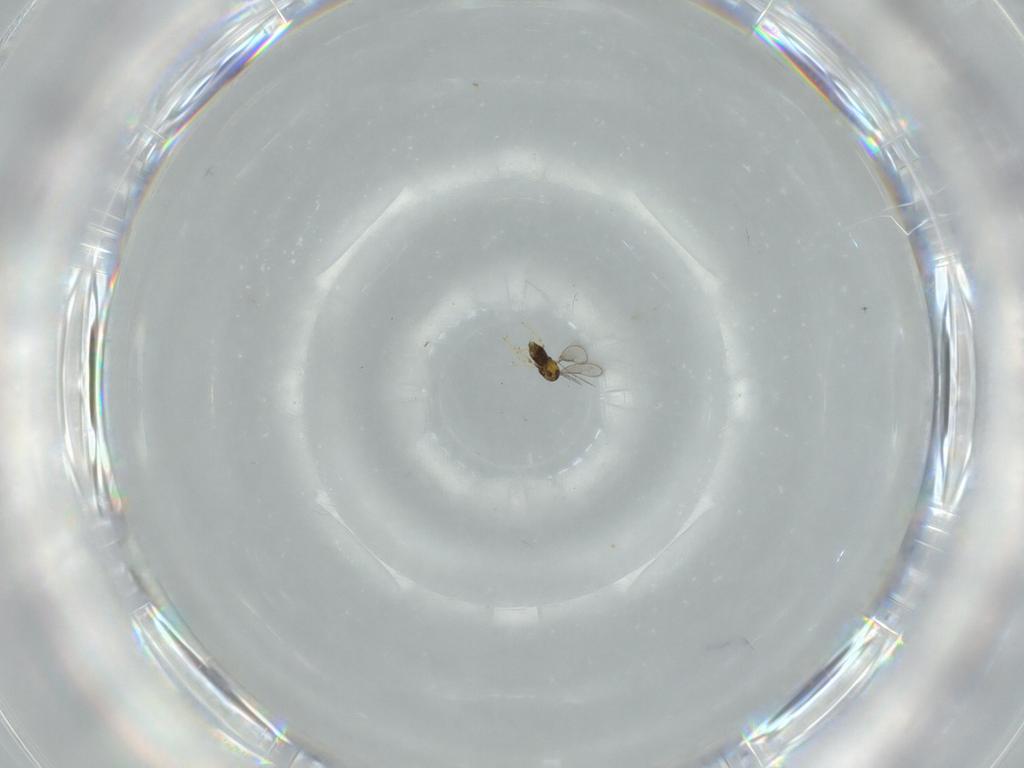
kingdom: Animalia
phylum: Arthropoda
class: Insecta
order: Hymenoptera
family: Aphelinidae
